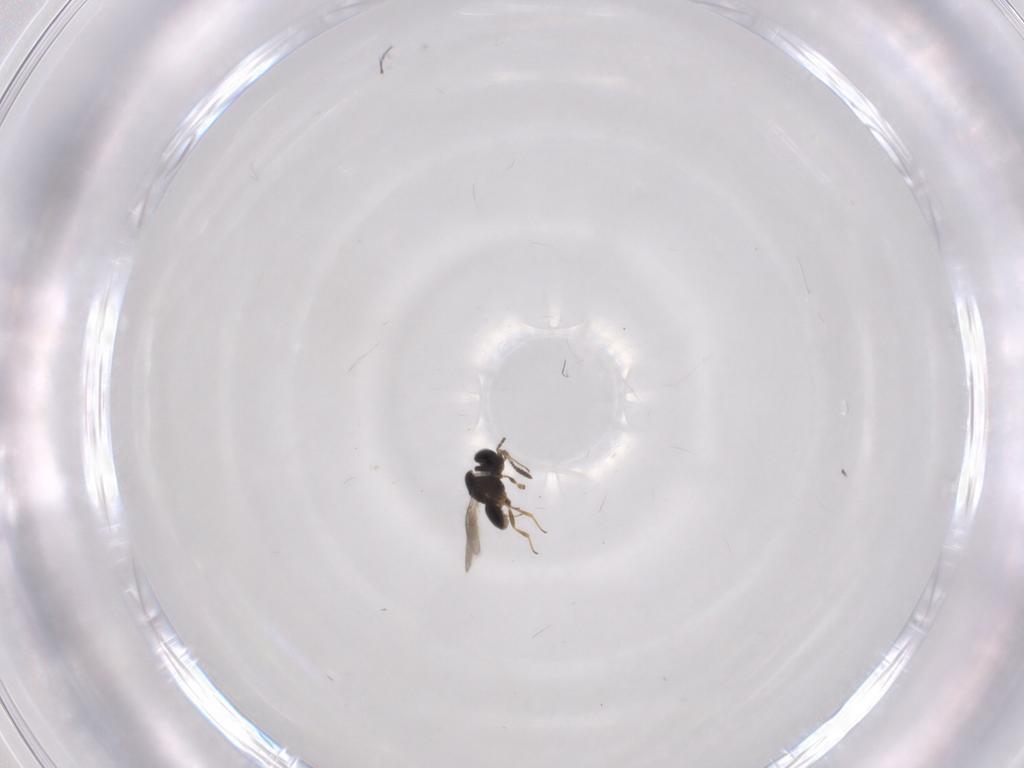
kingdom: Animalia
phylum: Arthropoda
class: Insecta
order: Hymenoptera
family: Scelionidae
